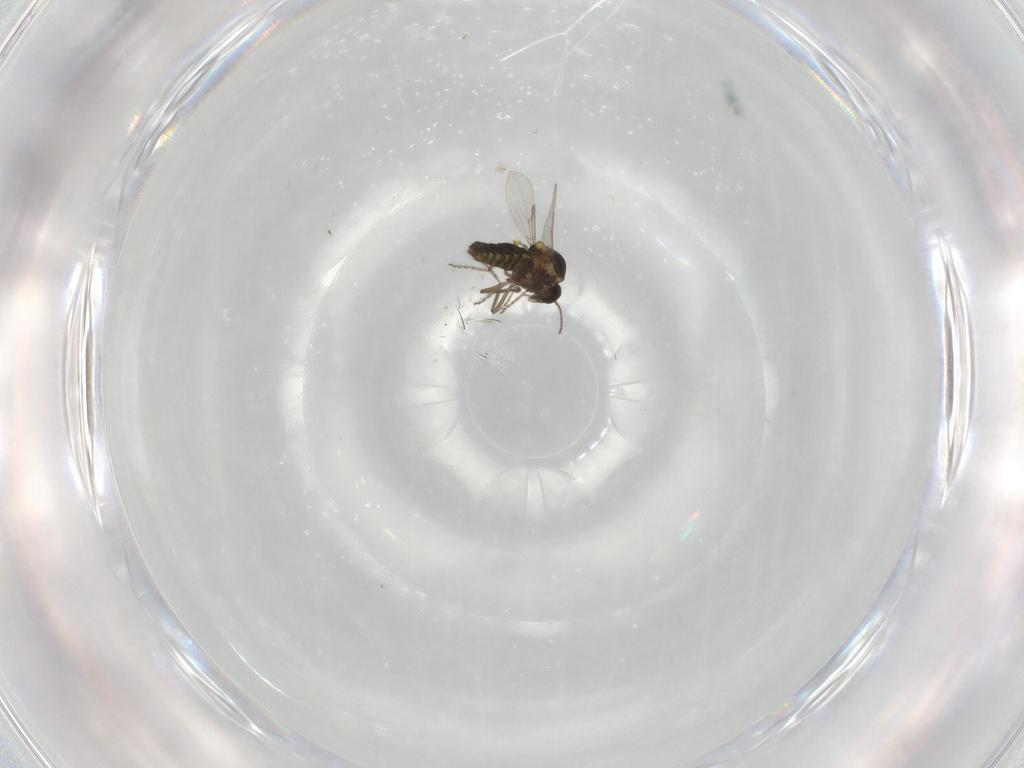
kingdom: Animalia
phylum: Arthropoda
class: Insecta
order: Diptera
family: Ceratopogonidae
